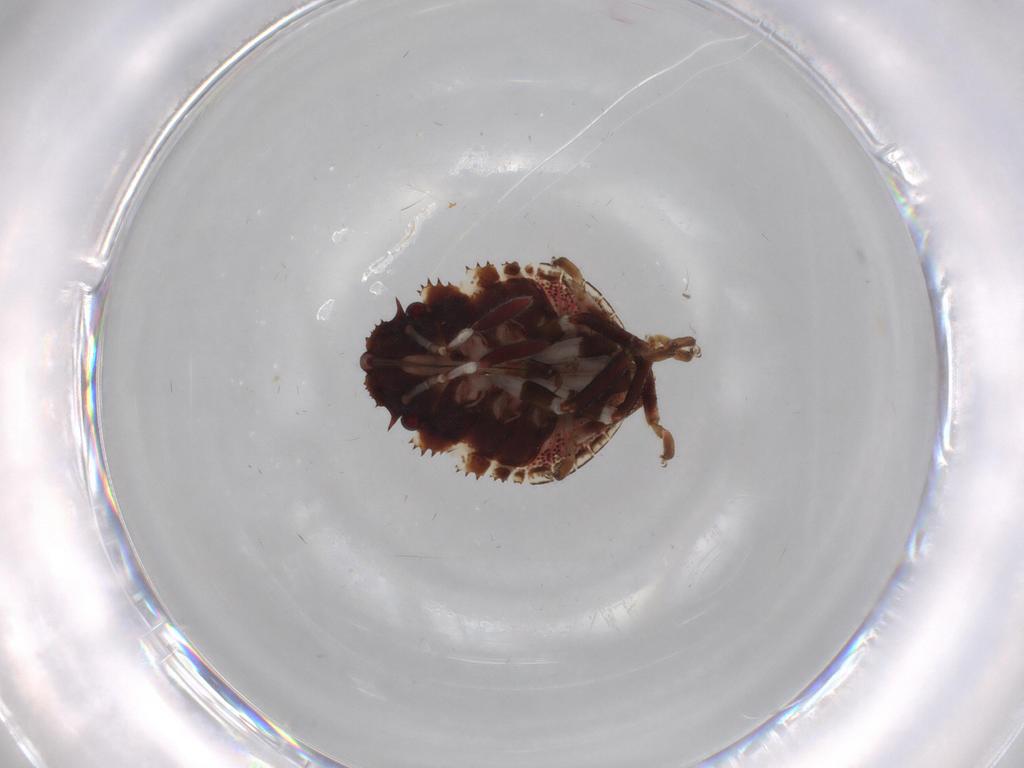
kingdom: Animalia
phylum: Arthropoda
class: Insecta
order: Hemiptera
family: Scutelleridae
